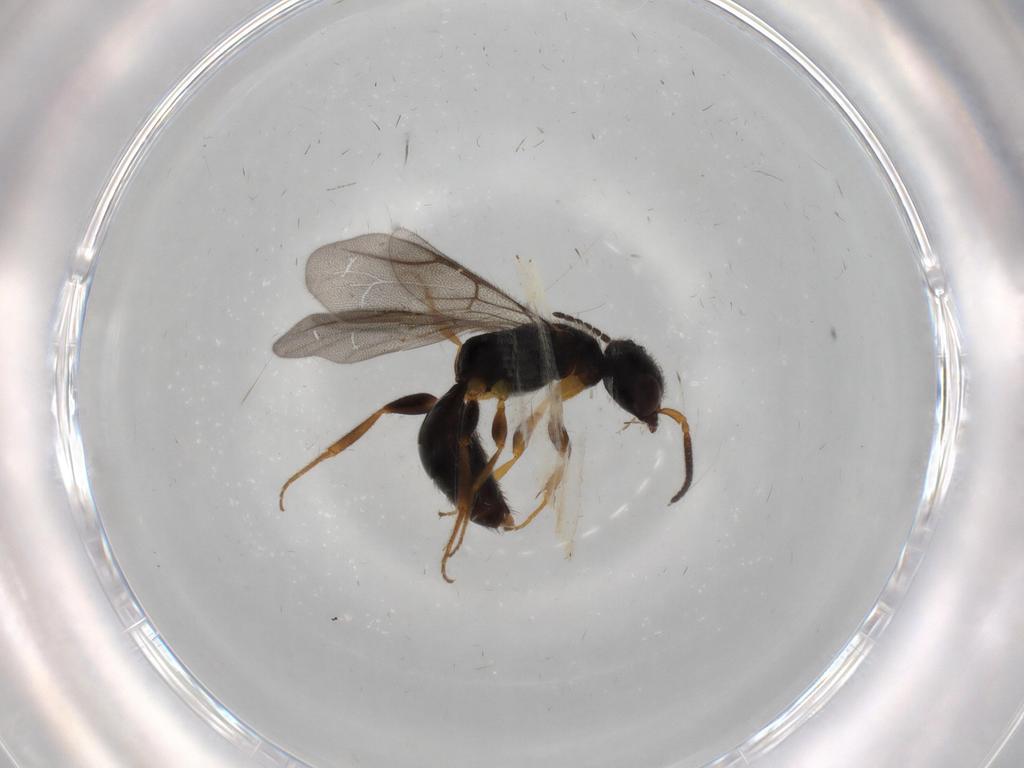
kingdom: Animalia
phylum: Arthropoda
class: Insecta
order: Hymenoptera
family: Bethylidae
